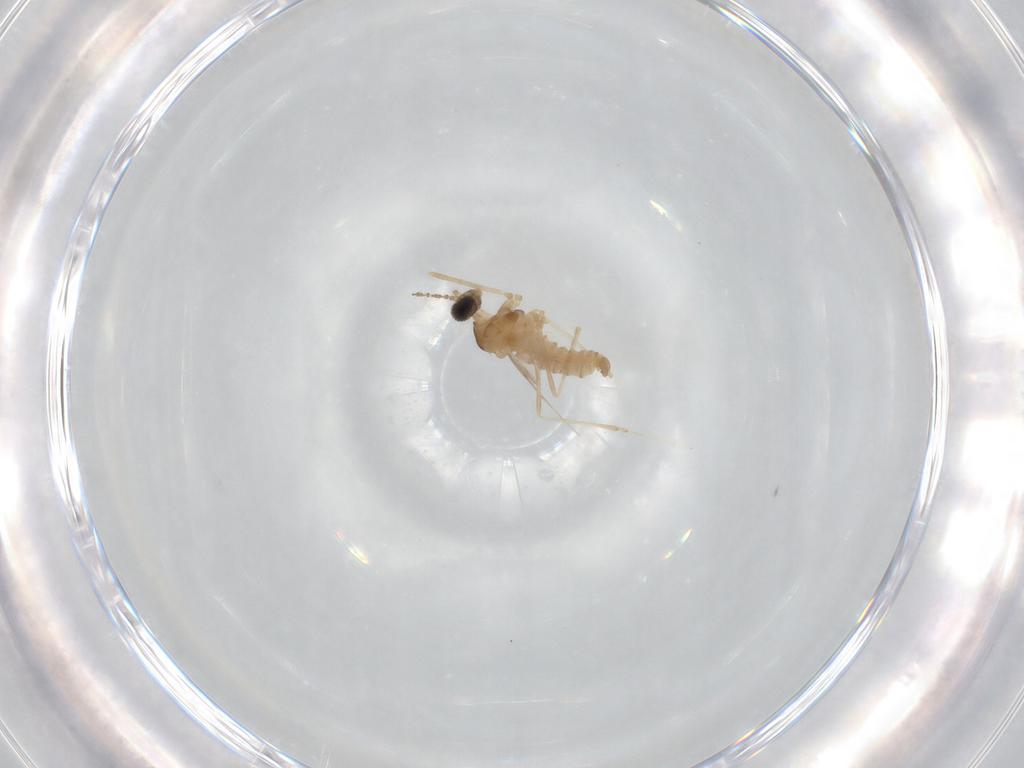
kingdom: Animalia
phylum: Arthropoda
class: Insecta
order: Diptera
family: Cecidomyiidae
